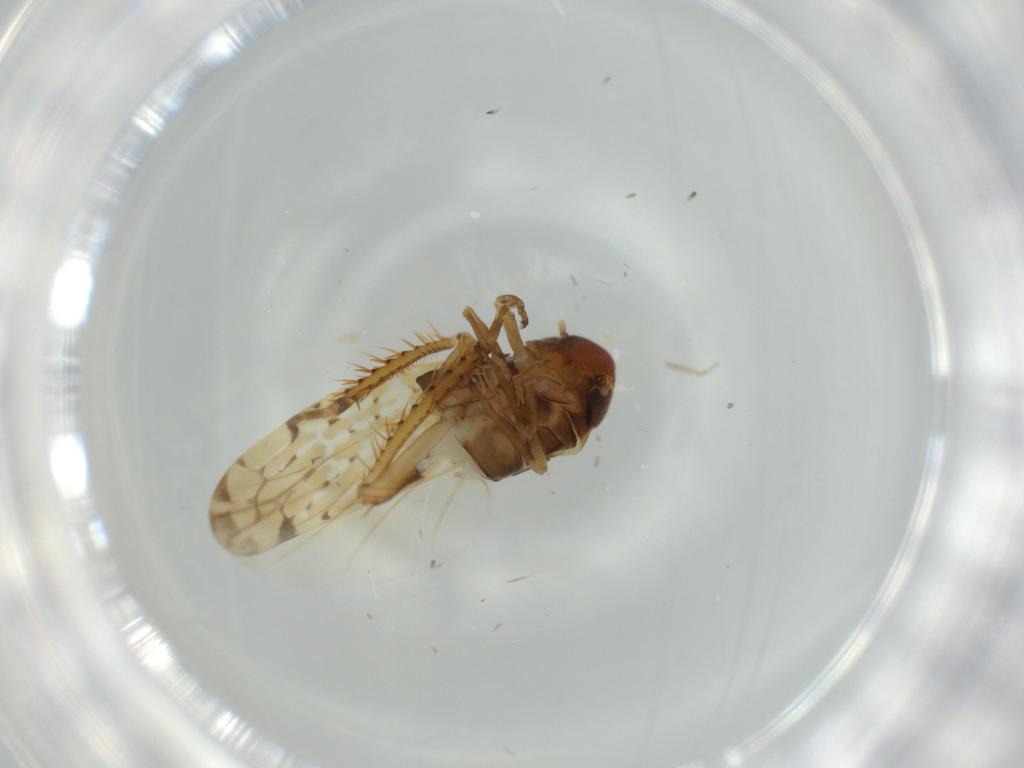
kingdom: Animalia
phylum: Arthropoda
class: Insecta
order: Hemiptera
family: Cicadellidae
